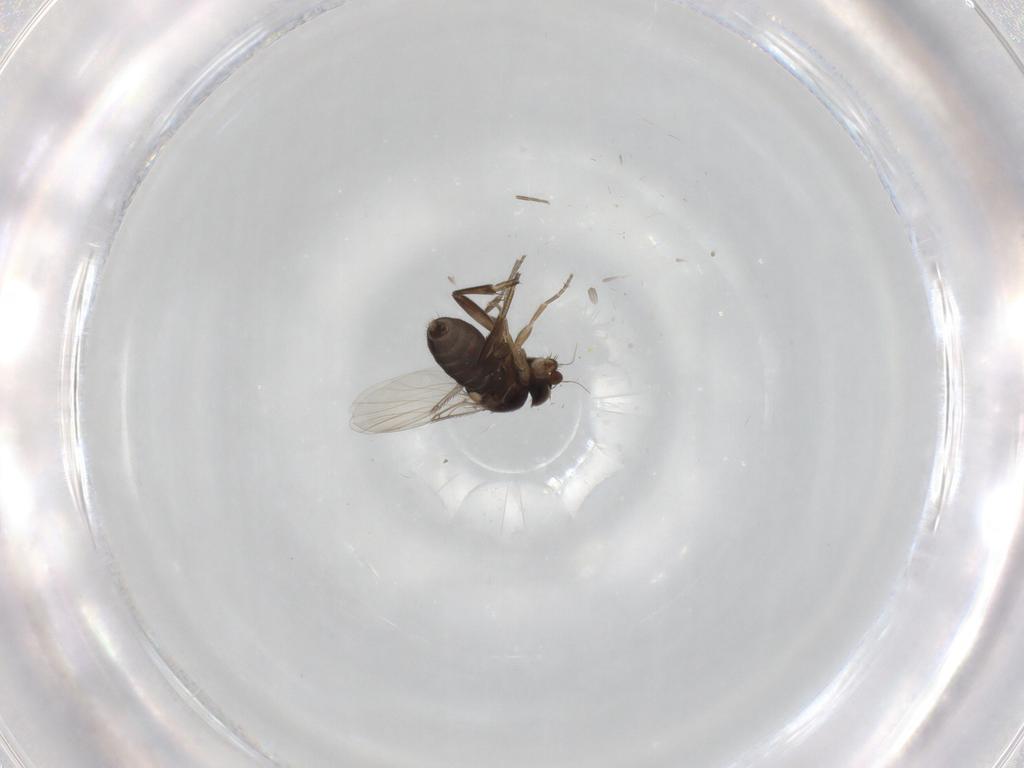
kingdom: Animalia
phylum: Arthropoda
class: Insecta
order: Diptera
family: Phoridae
